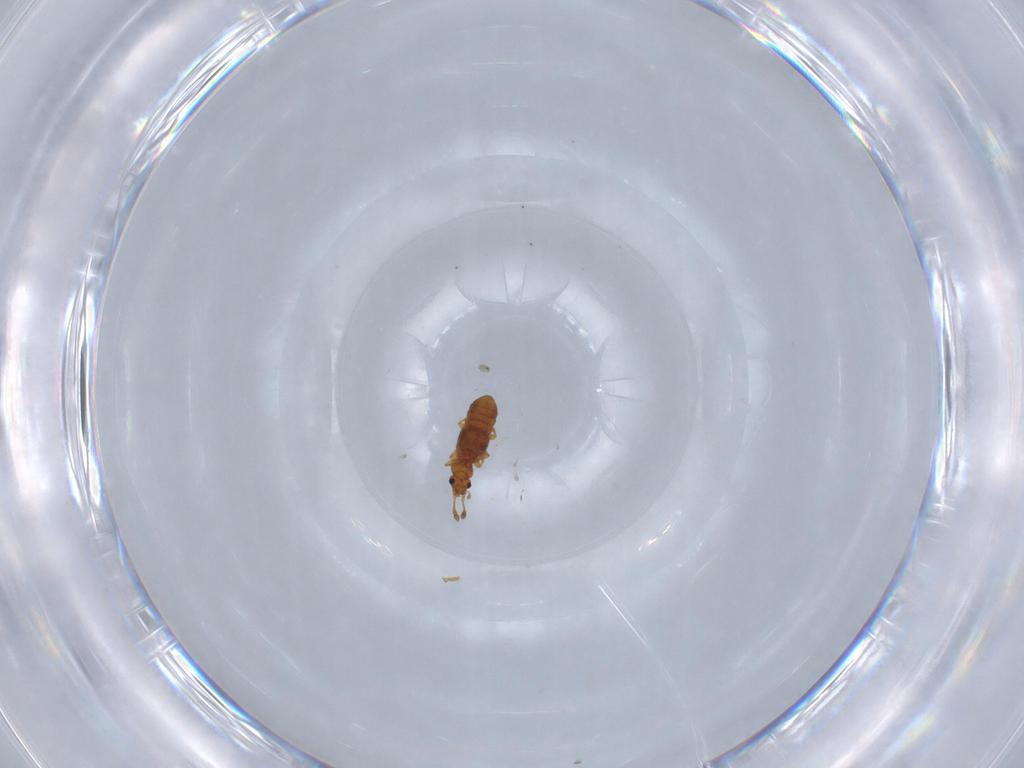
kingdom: Animalia
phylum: Arthropoda
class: Insecta
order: Coleoptera
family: Staphylinidae
